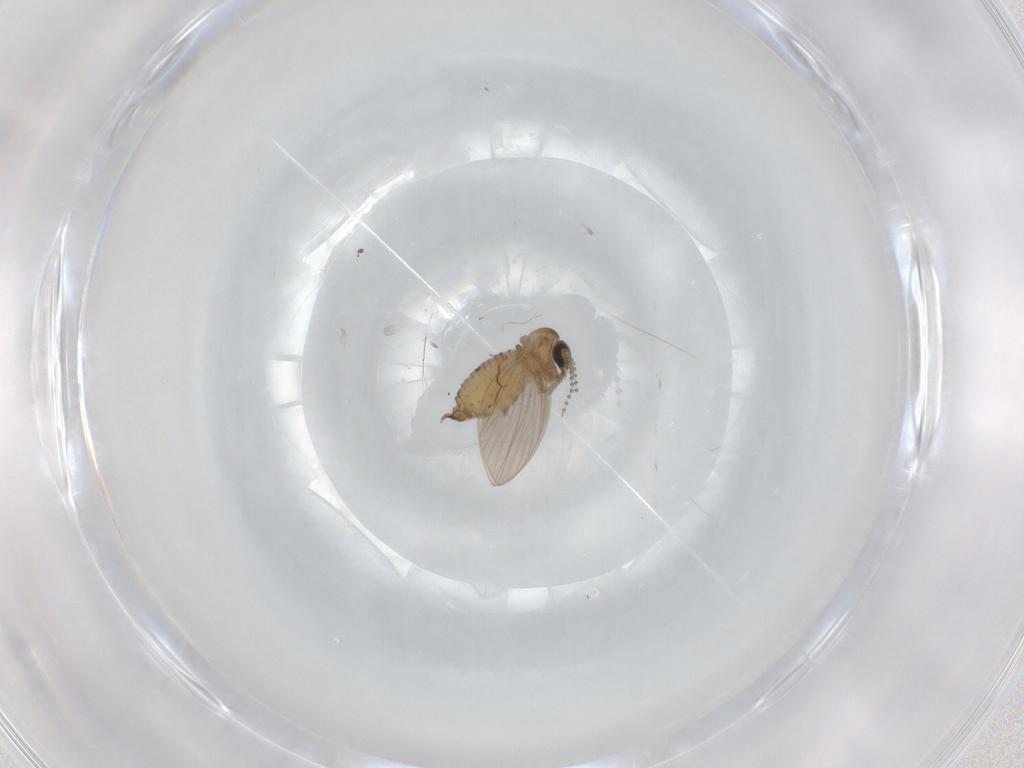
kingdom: Animalia
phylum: Arthropoda
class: Insecta
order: Diptera
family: Psychodidae
